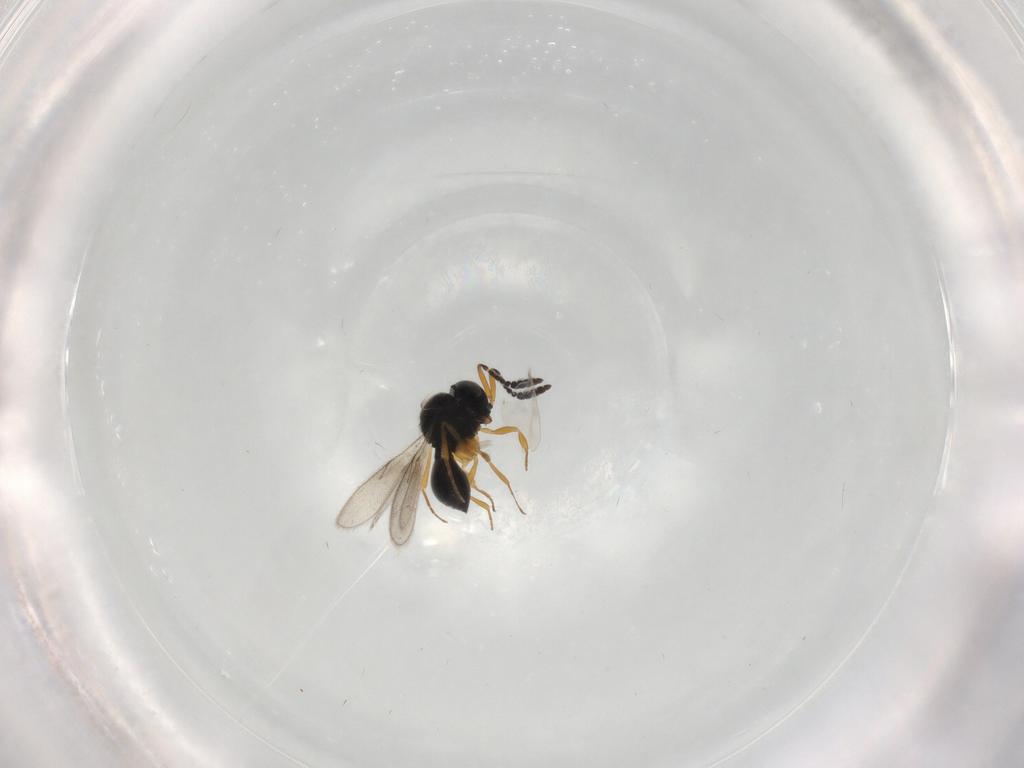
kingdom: Animalia
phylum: Arthropoda
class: Insecta
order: Hymenoptera
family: Scelionidae
